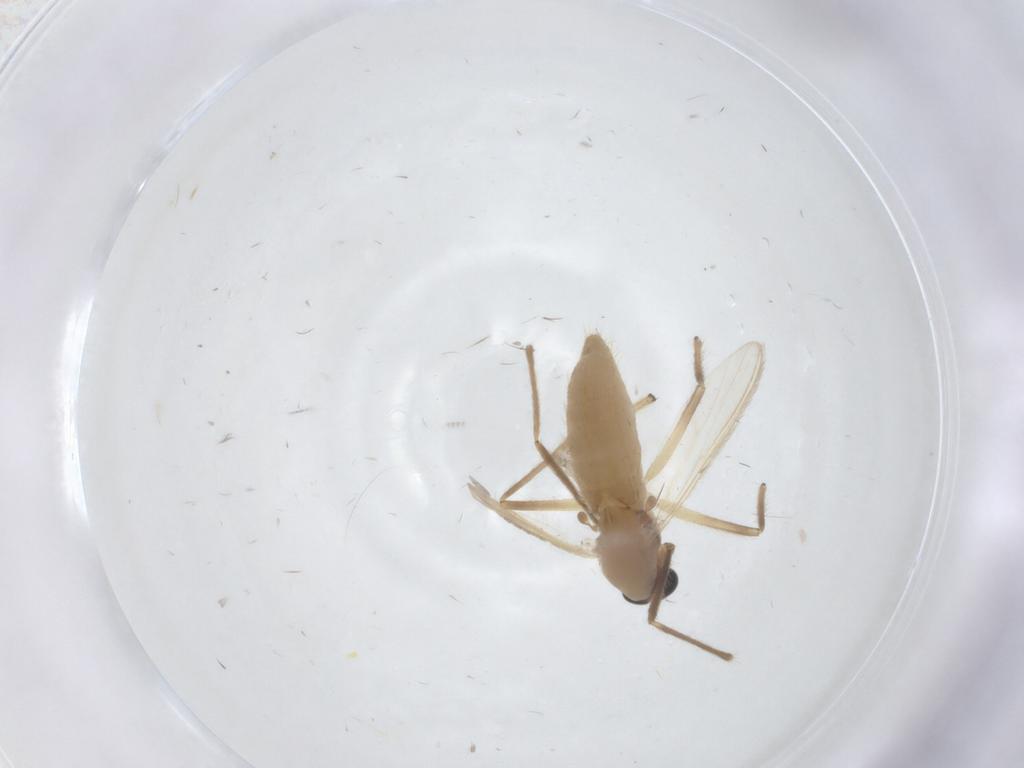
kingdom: Animalia
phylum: Arthropoda
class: Insecta
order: Diptera
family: Chironomidae
